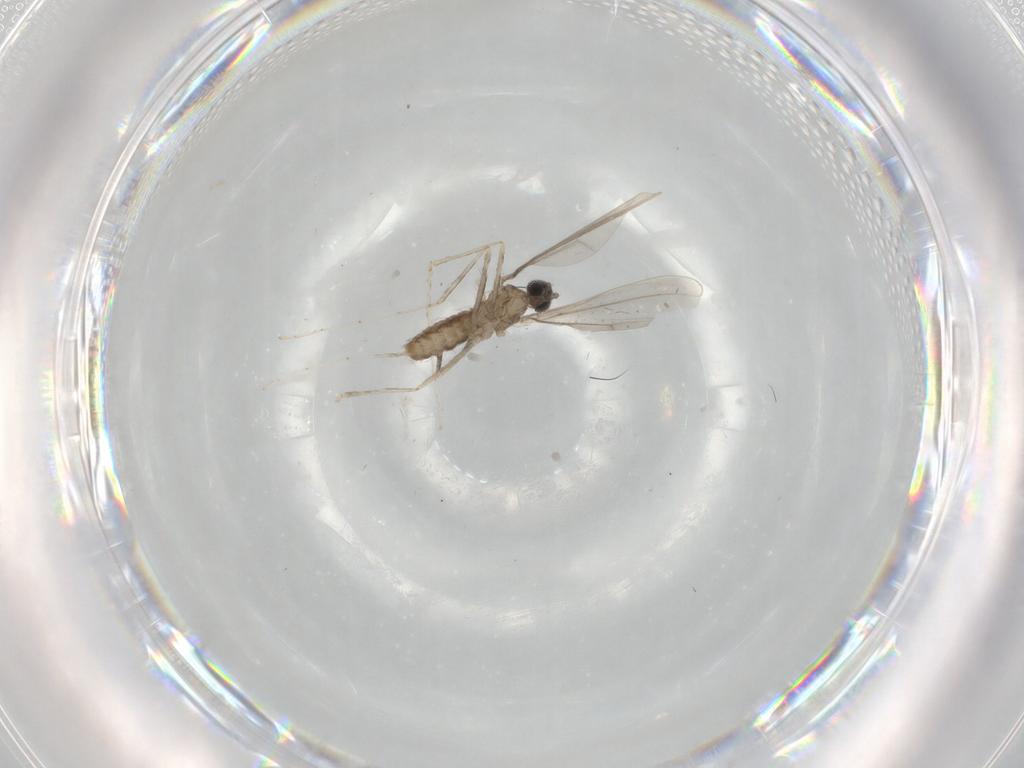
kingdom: Animalia
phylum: Arthropoda
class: Insecta
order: Diptera
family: Cecidomyiidae
